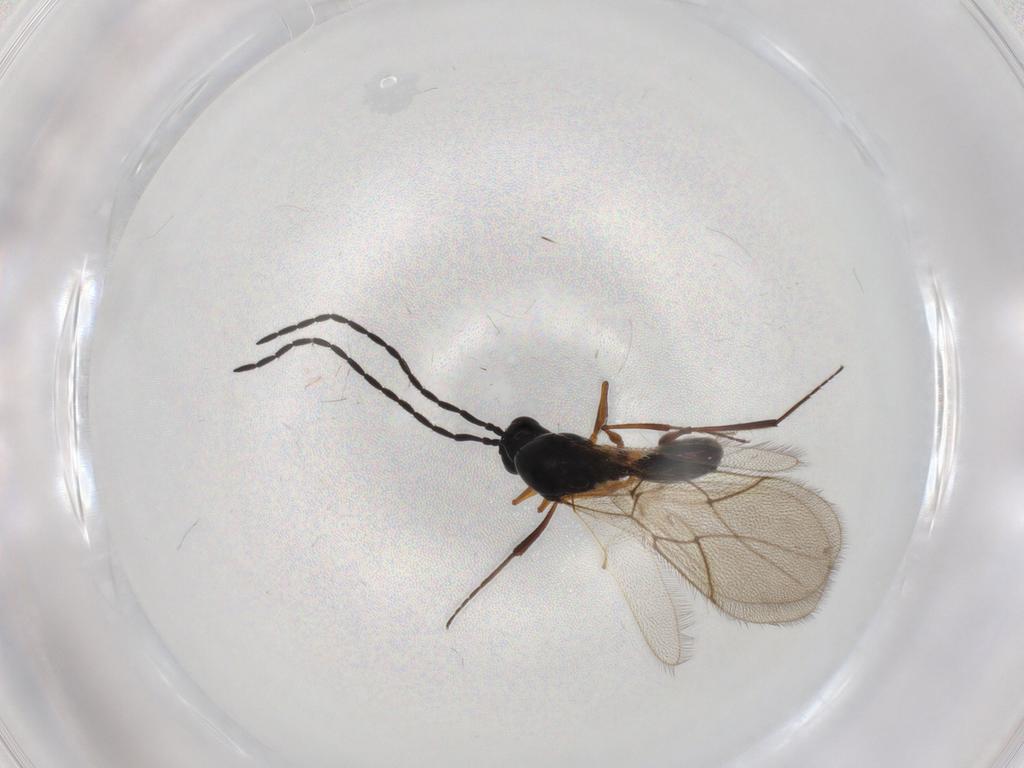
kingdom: Animalia
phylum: Arthropoda
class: Insecta
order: Hymenoptera
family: Figitidae
